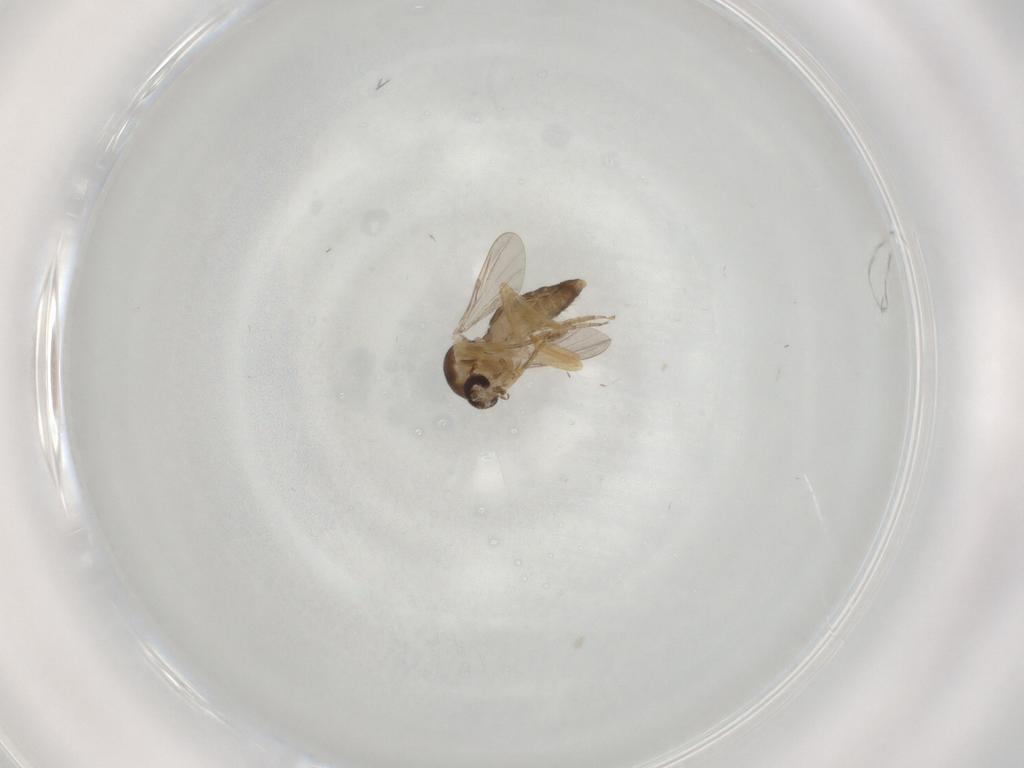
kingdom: Animalia
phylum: Arthropoda
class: Insecta
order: Diptera
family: Ceratopogonidae
